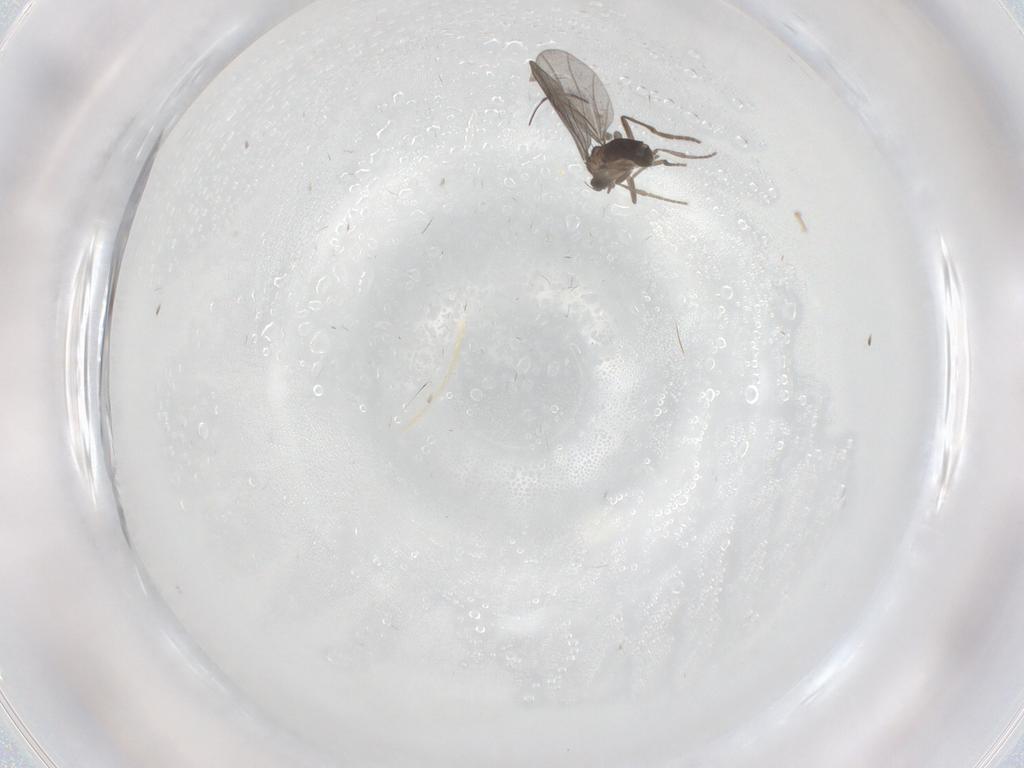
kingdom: Animalia
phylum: Arthropoda
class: Insecta
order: Diptera
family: Phoridae
